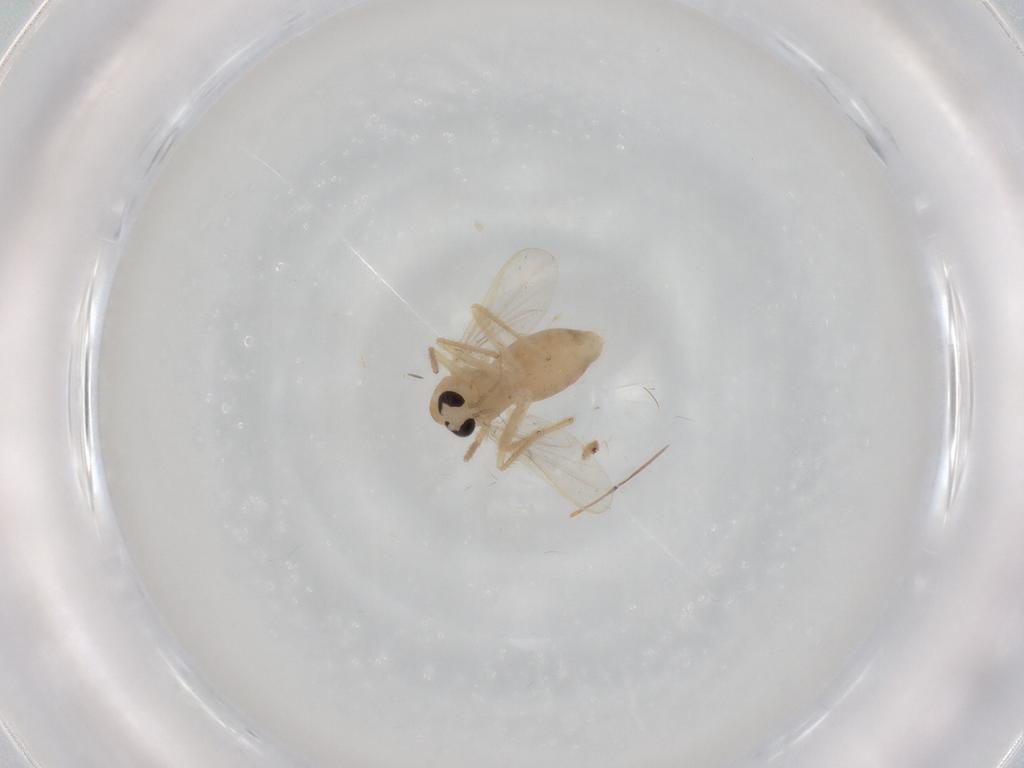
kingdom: Animalia
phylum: Arthropoda
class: Insecta
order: Diptera
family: Chironomidae
